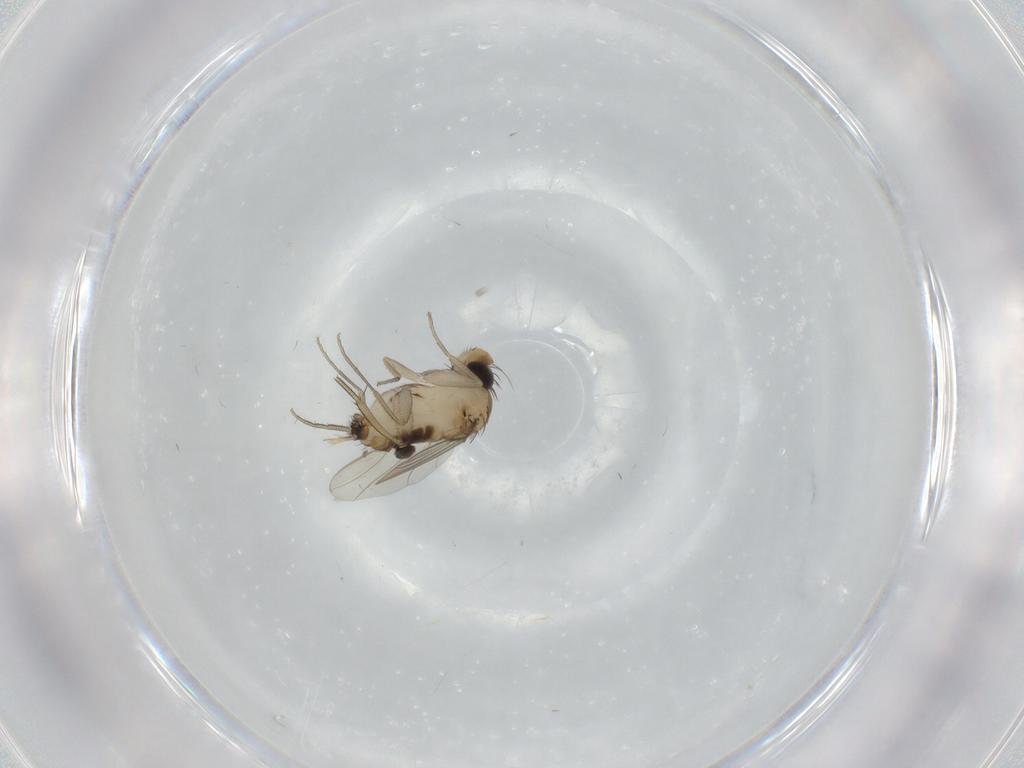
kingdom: Animalia
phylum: Arthropoda
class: Insecta
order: Diptera
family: Phoridae
